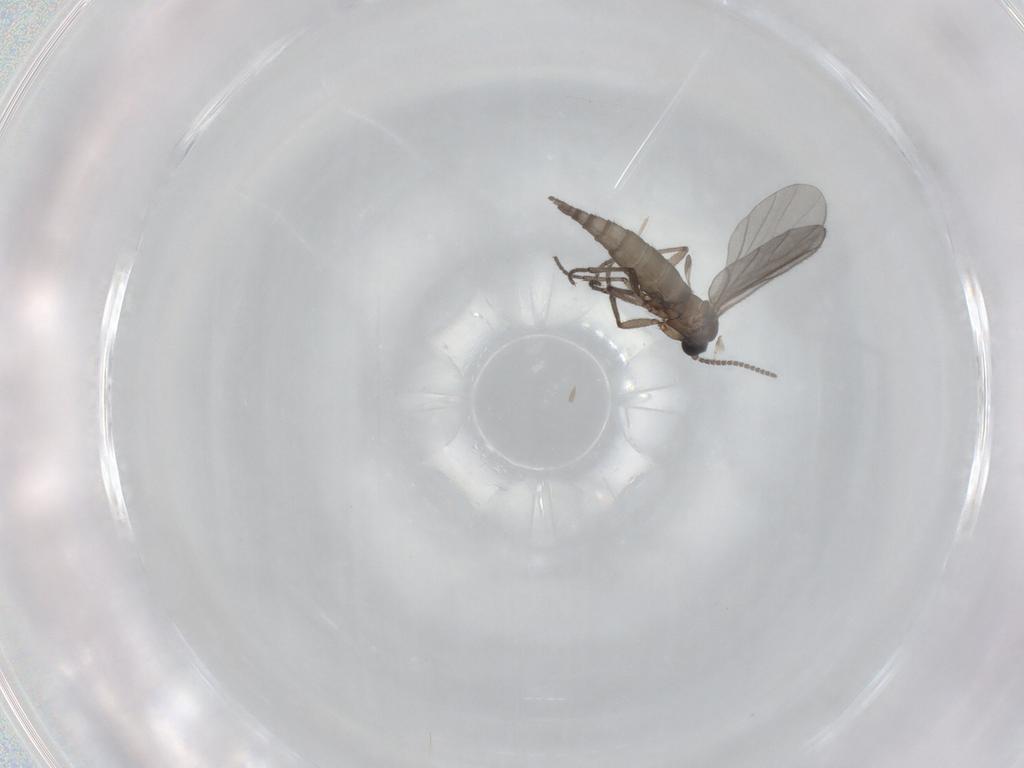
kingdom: Animalia
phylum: Arthropoda
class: Insecta
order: Diptera
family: Sciaridae
